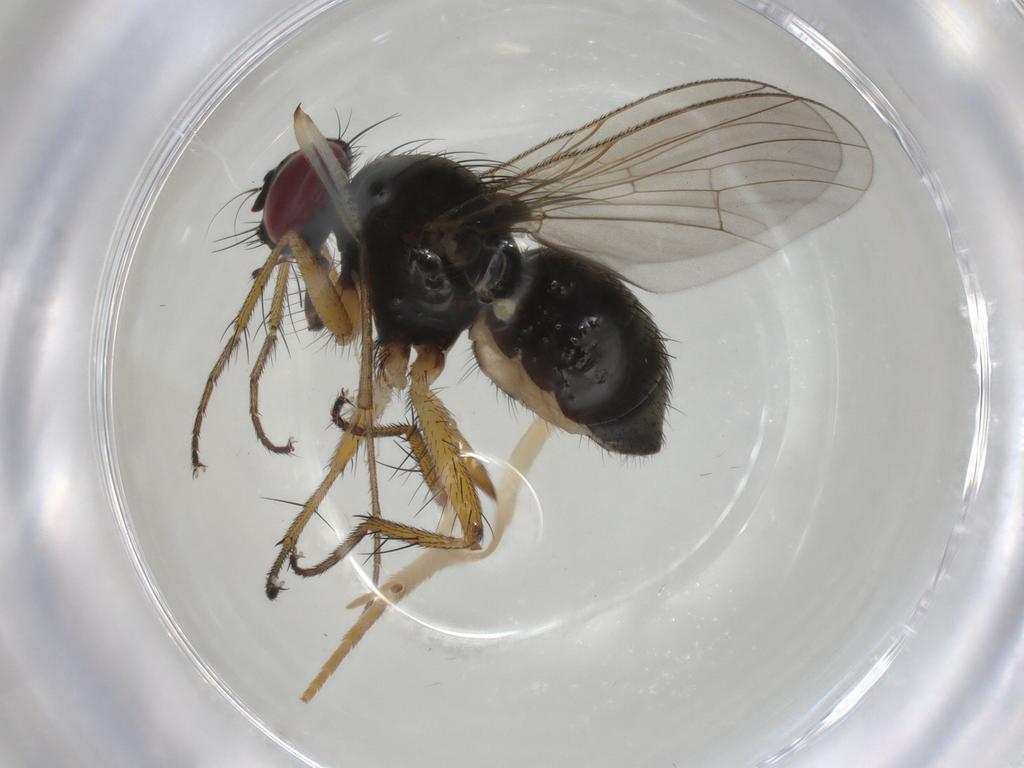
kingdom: Animalia
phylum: Arthropoda
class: Insecta
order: Diptera
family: Muscidae
